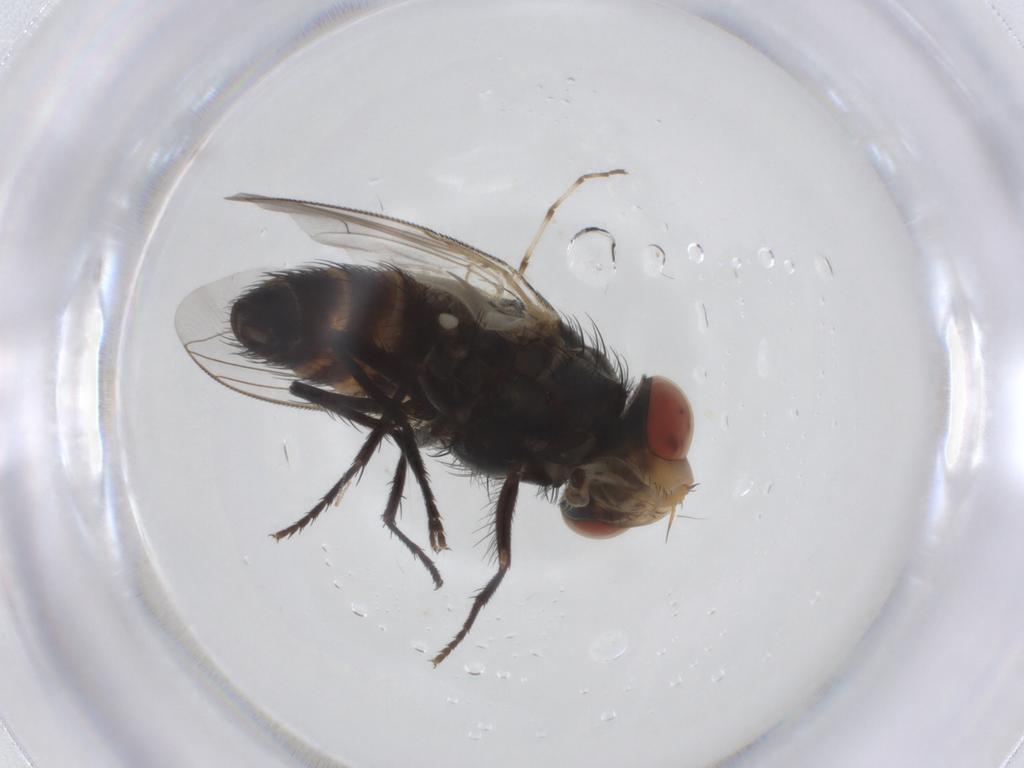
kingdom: Animalia
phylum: Arthropoda
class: Insecta
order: Diptera
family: Sarcophagidae
